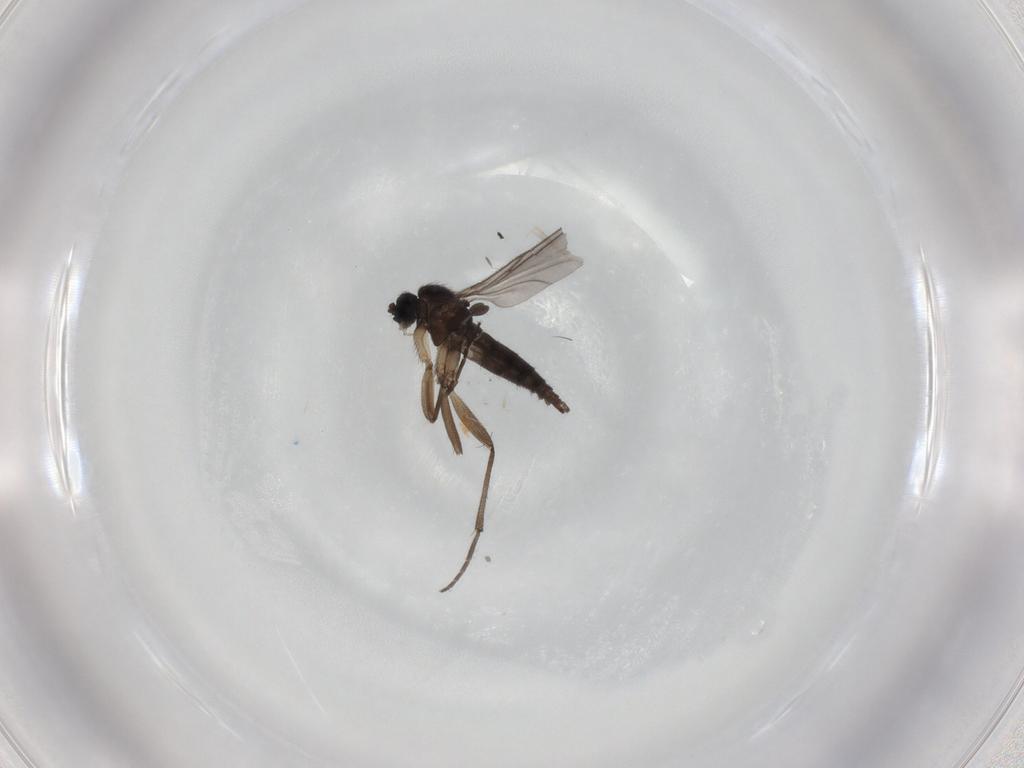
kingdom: Animalia
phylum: Arthropoda
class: Insecta
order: Diptera
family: Sciaridae
